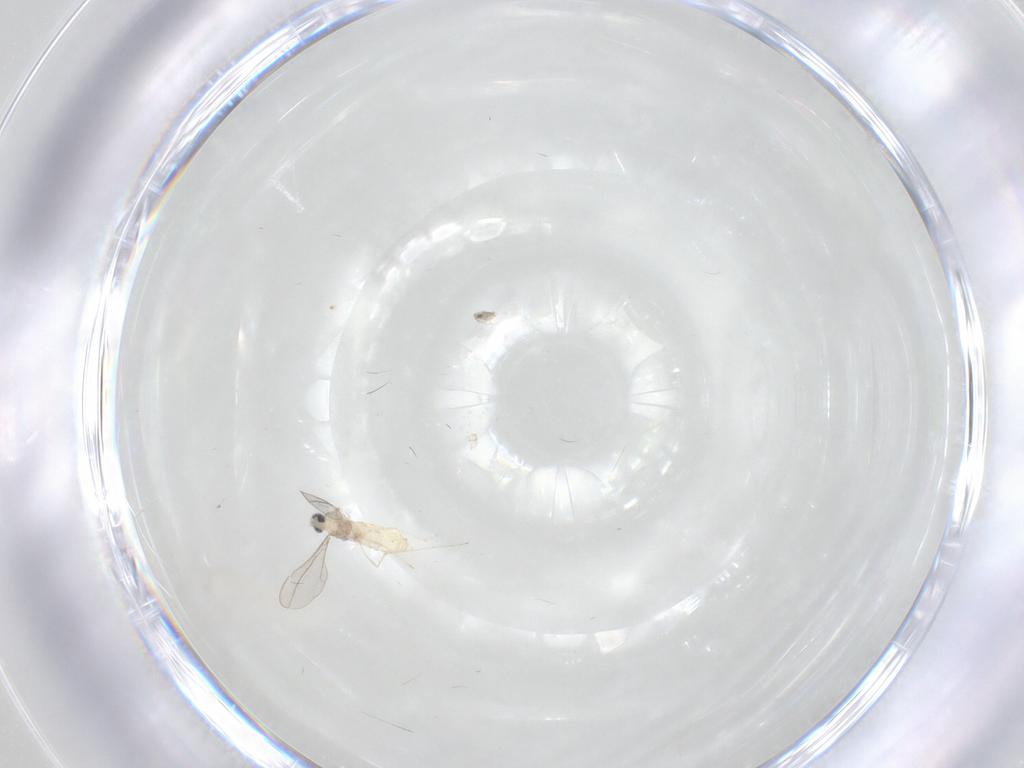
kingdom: Animalia
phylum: Arthropoda
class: Insecta
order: Diptera
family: Cecidomyiidae
